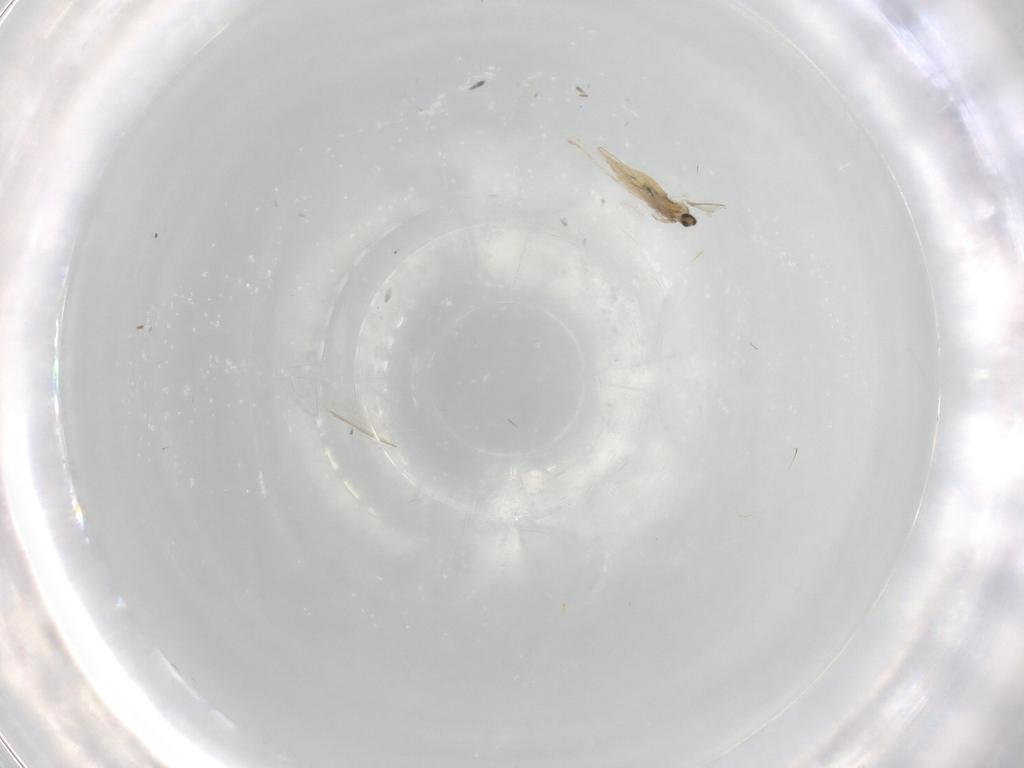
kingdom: Animalia
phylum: Arthropoda
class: Insecta
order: Diptera
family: Cecidomyiidae
